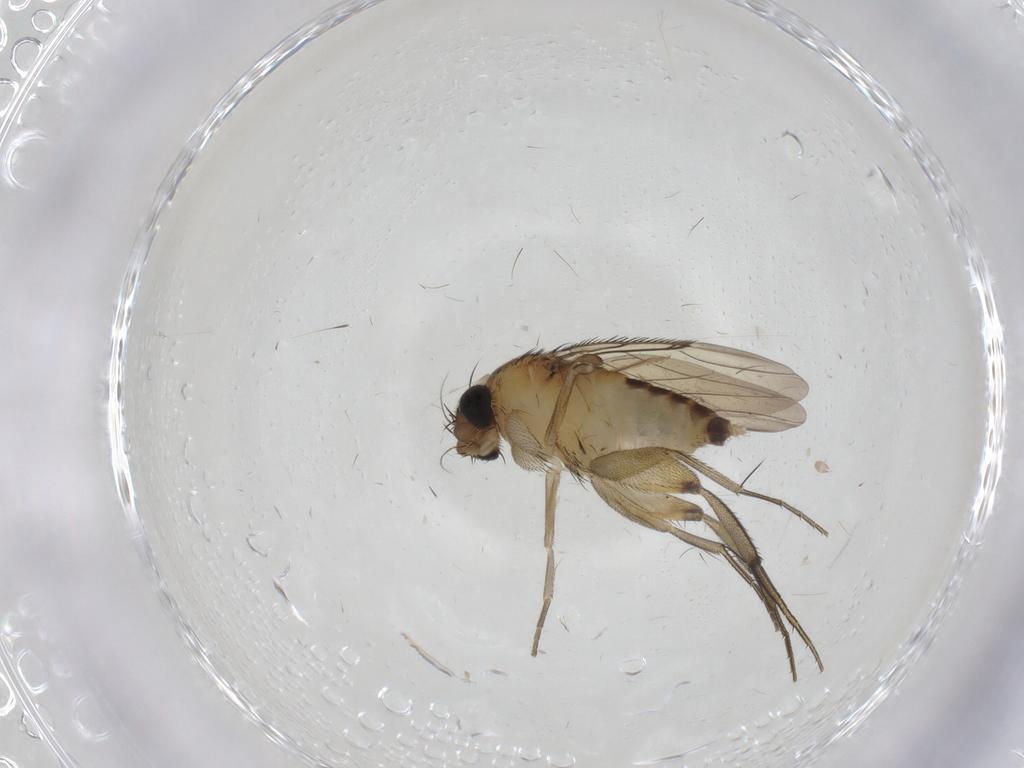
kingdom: Animalia
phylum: Arthropoda
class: Insecta
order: Diptera
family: Phoridae
